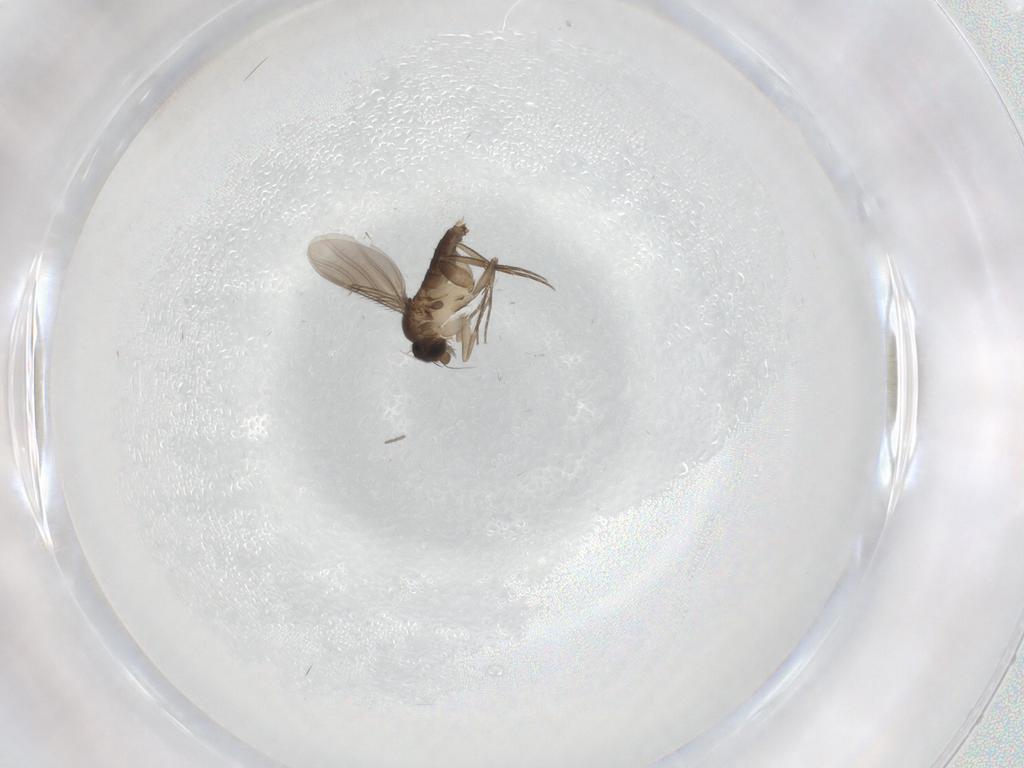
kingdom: Animalia
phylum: Arthropoda
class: Insecta
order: Diptera
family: Phoridae
